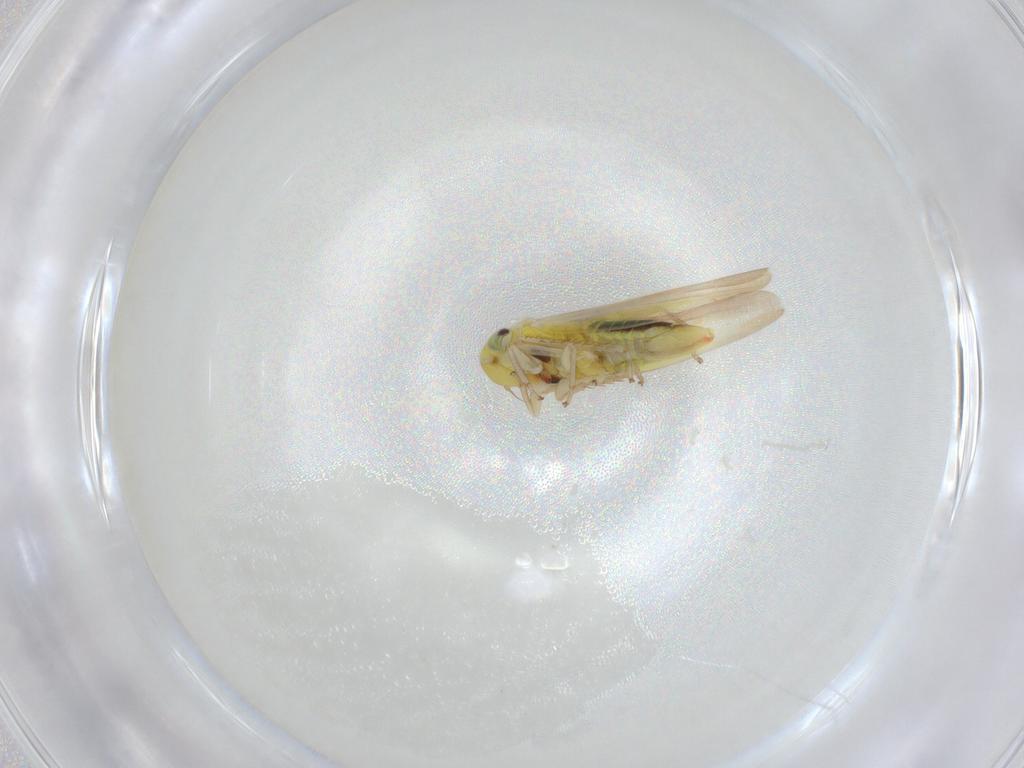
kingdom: Animalia
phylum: Arthropoda
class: Insecta
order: Hemiptera
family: Cicadellidae
